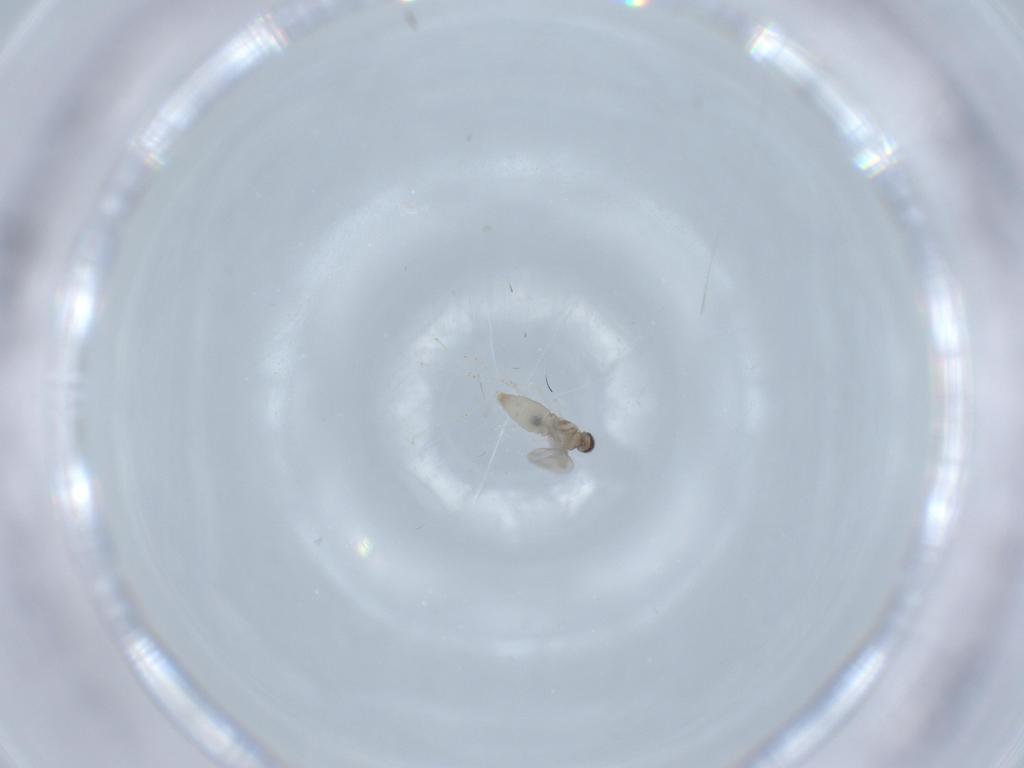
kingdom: Animalia
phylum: Arthropoda
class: Insecta
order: Diptera
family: Cecidomyiidae
